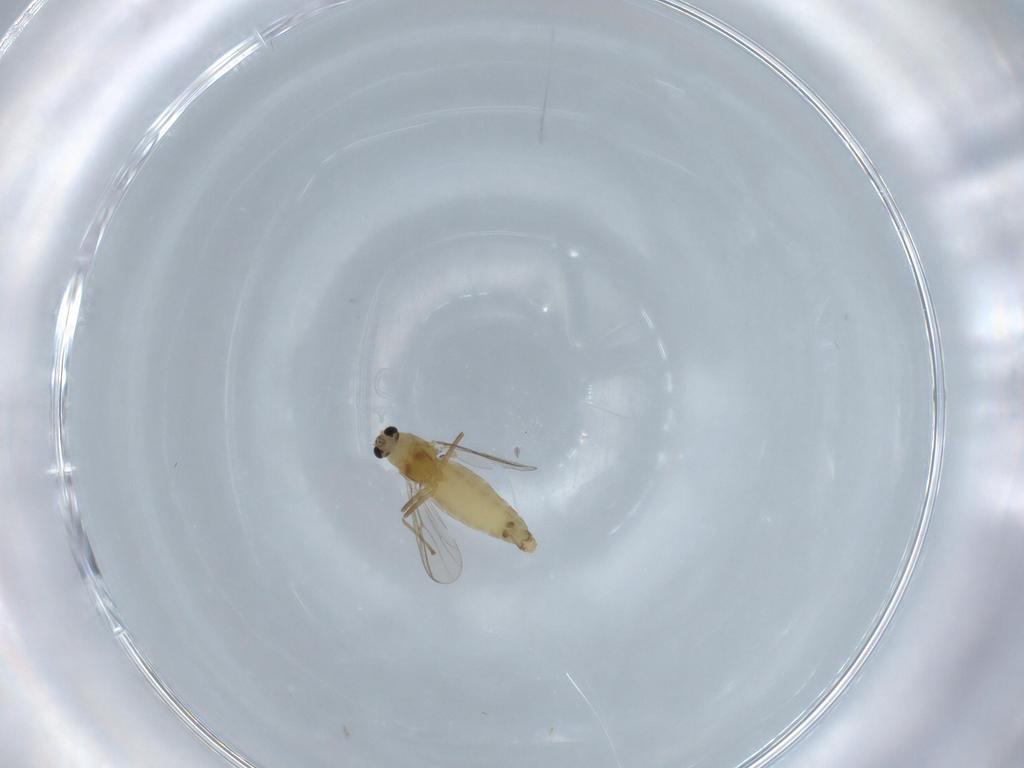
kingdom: Animalia
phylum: Arthropoda
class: Insecta
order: Diptera
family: Chironomidae
